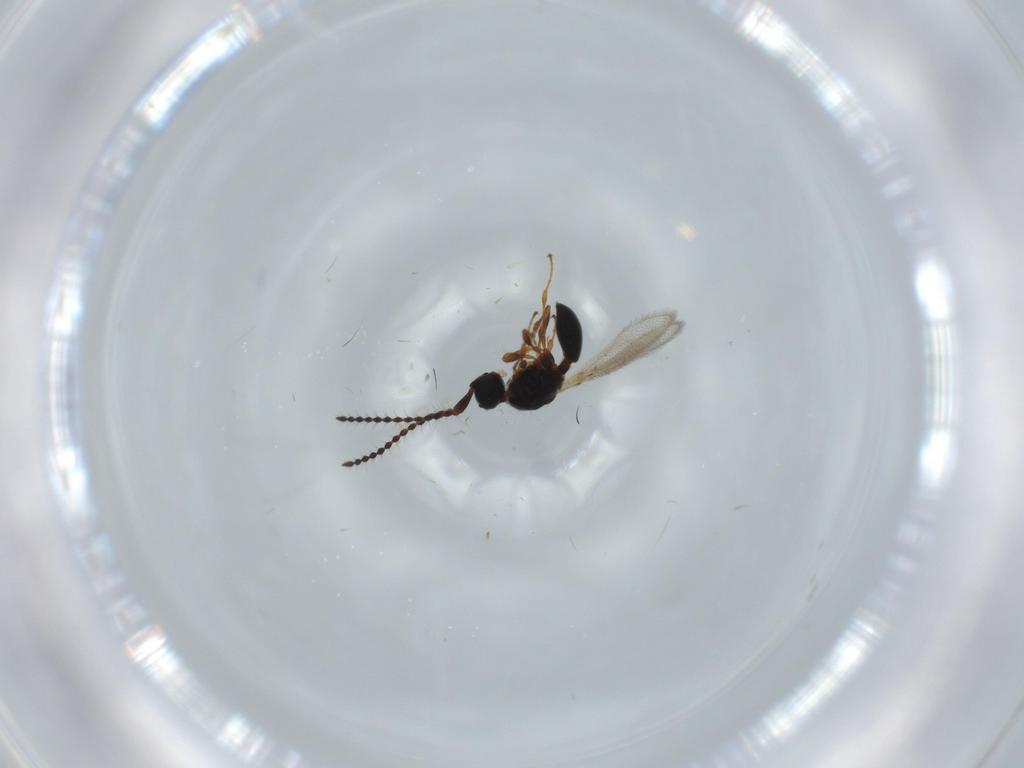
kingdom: Animalia
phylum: Arthropoda
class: Insecta
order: Hymenoptera
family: Diapriidae
